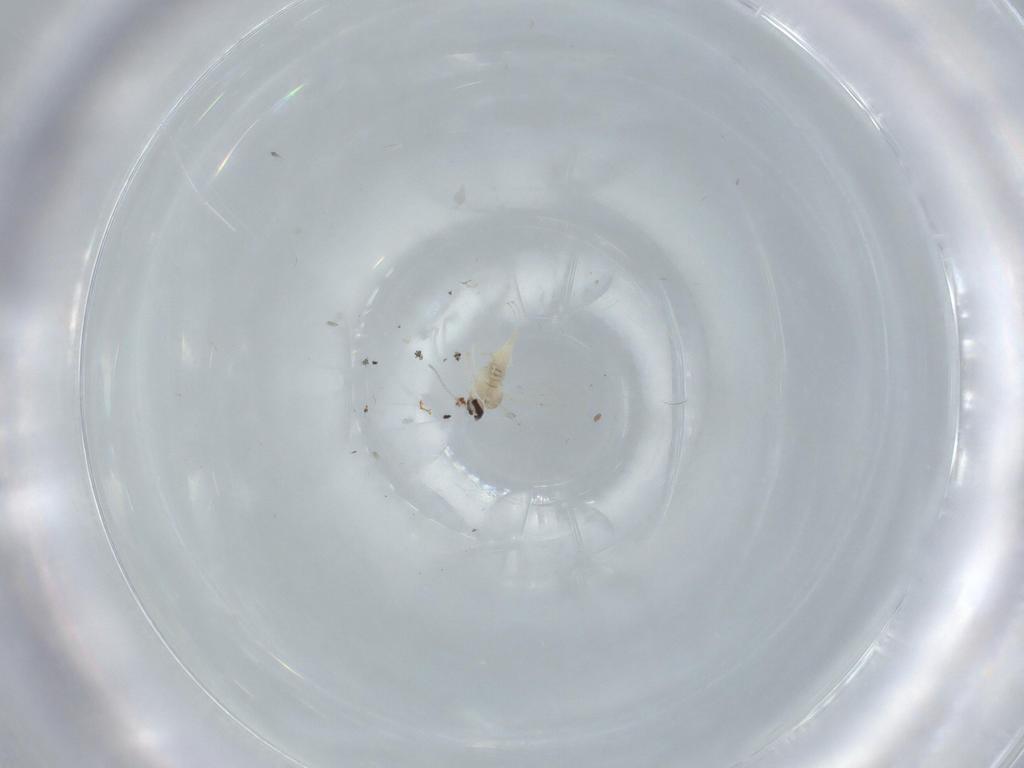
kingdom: Animalia
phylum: Arthropoda
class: Insecta
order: Diptera
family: Cecidomyiidae
